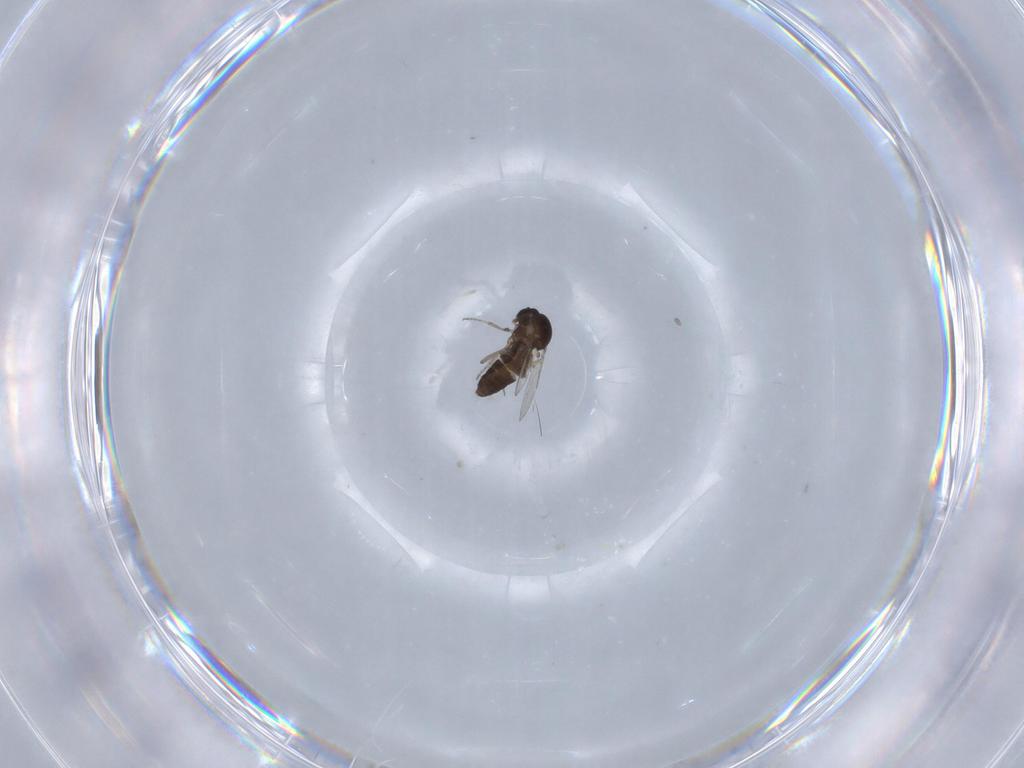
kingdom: Animalia
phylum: Arthropoda
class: Insecta
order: Diptera
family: Ceratopogonidae
